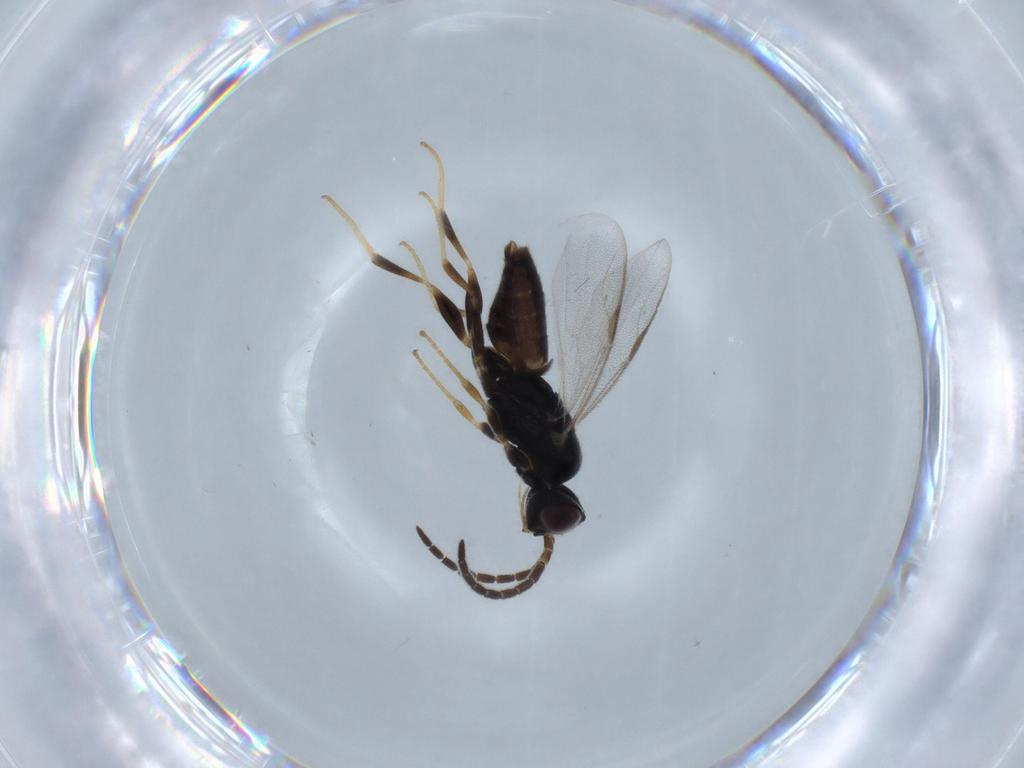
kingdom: Animalia
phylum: Arthropoda
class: Insecta
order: Hymenoptera
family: Dryinidae
